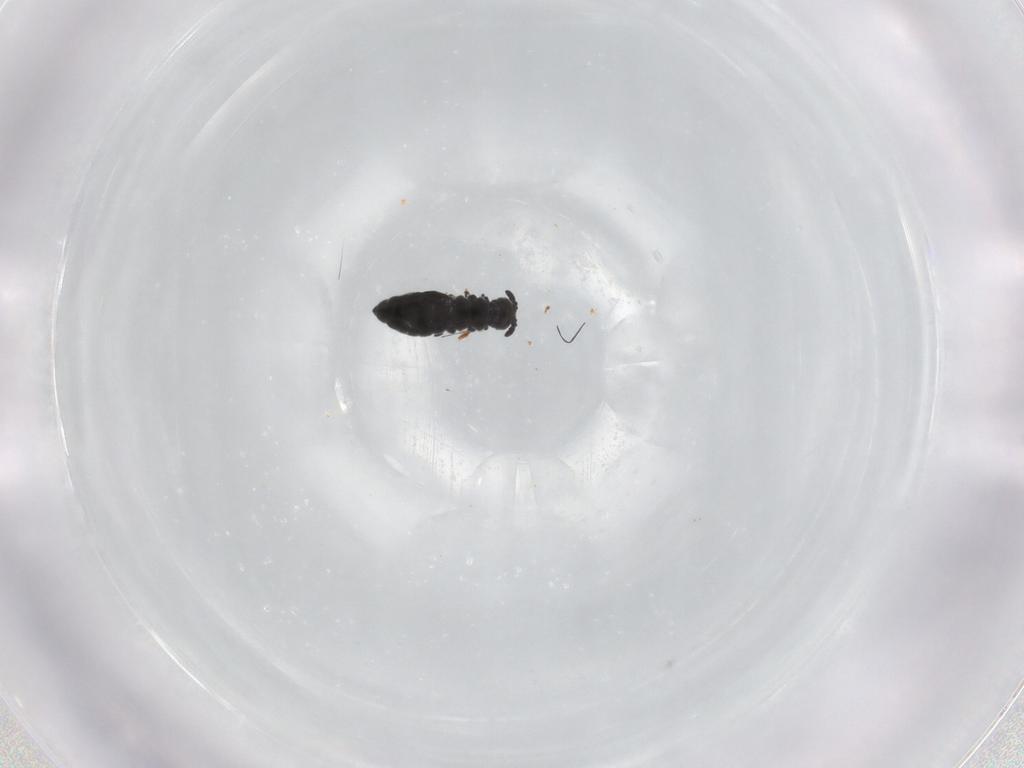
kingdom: Animalia
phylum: Arthropoda
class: Collembola
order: Poduromorpha
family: Hypogastruridae
